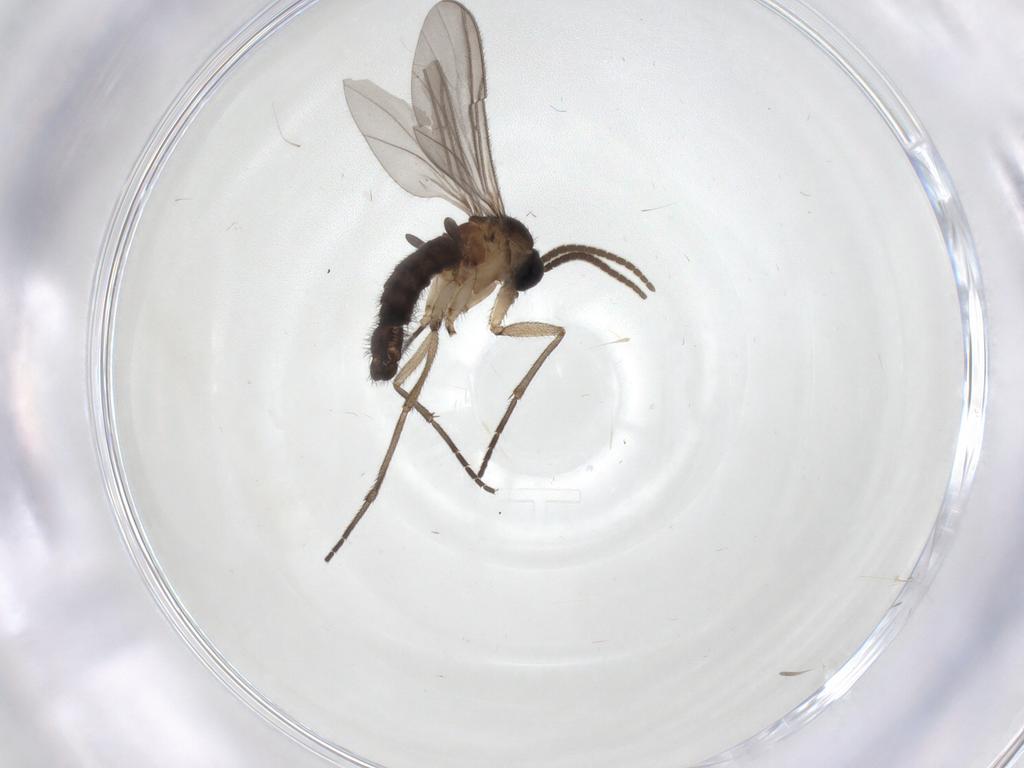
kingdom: Animalia
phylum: Arthropoda
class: Insecta
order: Diptera
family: Sciaridae
